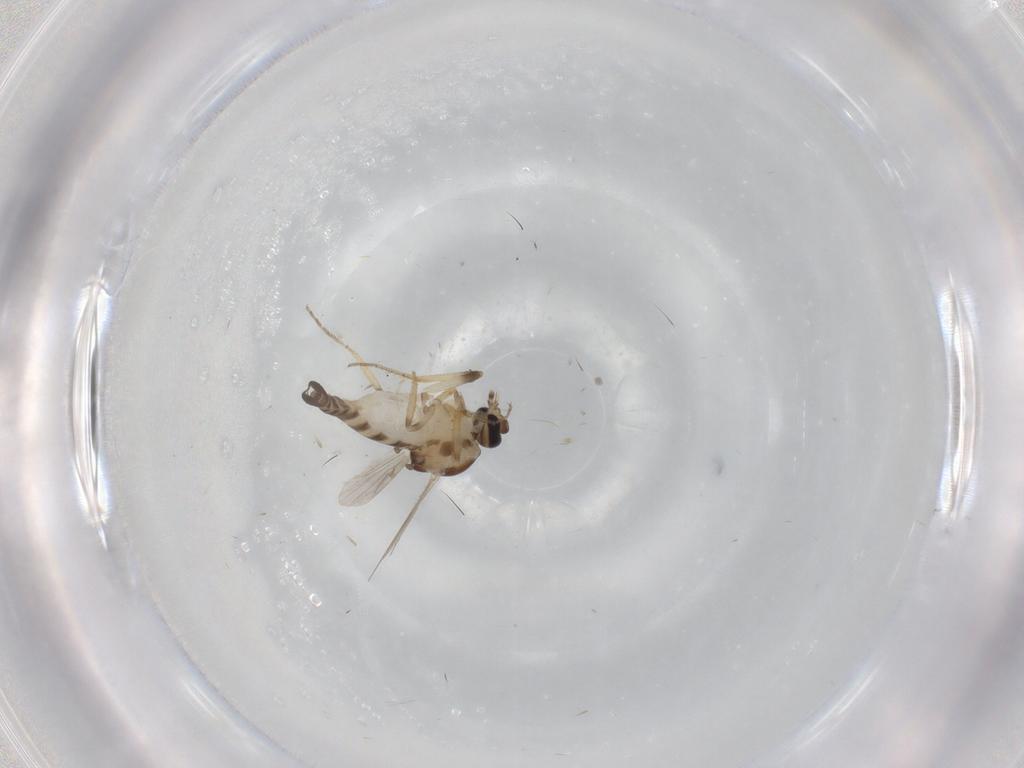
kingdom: Animalia
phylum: Arthropoda
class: Insecta
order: Diptera
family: Ceratopogonidae
